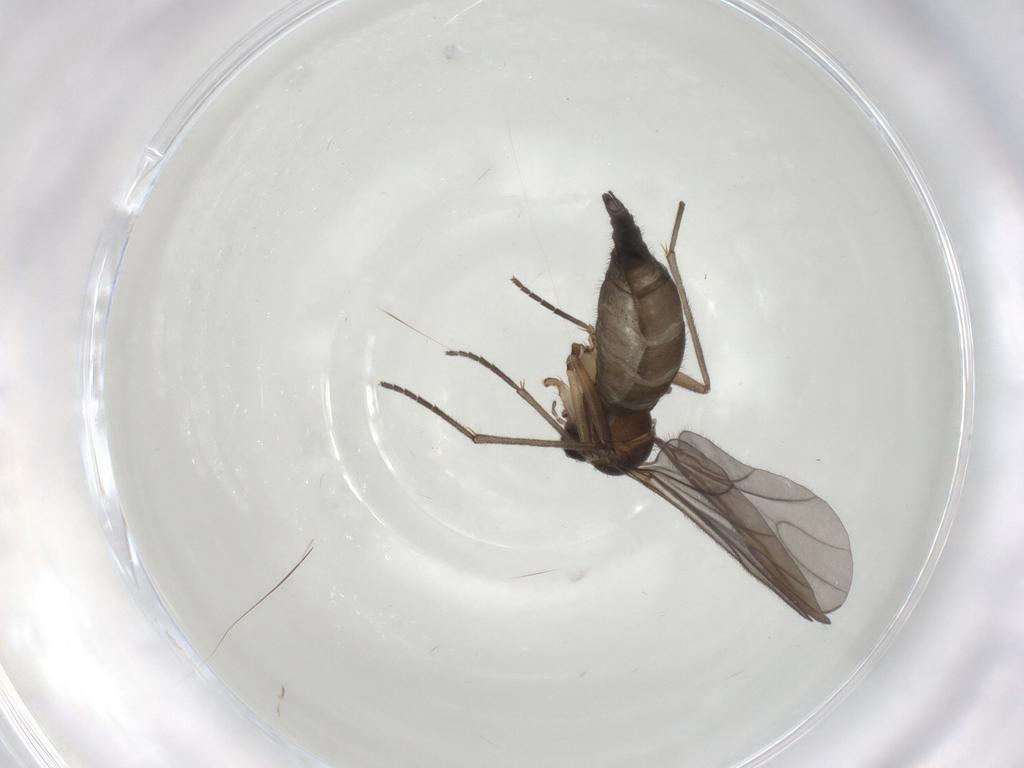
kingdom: Animalia
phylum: Arthropoda
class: Insecta
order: Diptera
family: Sciaridae
